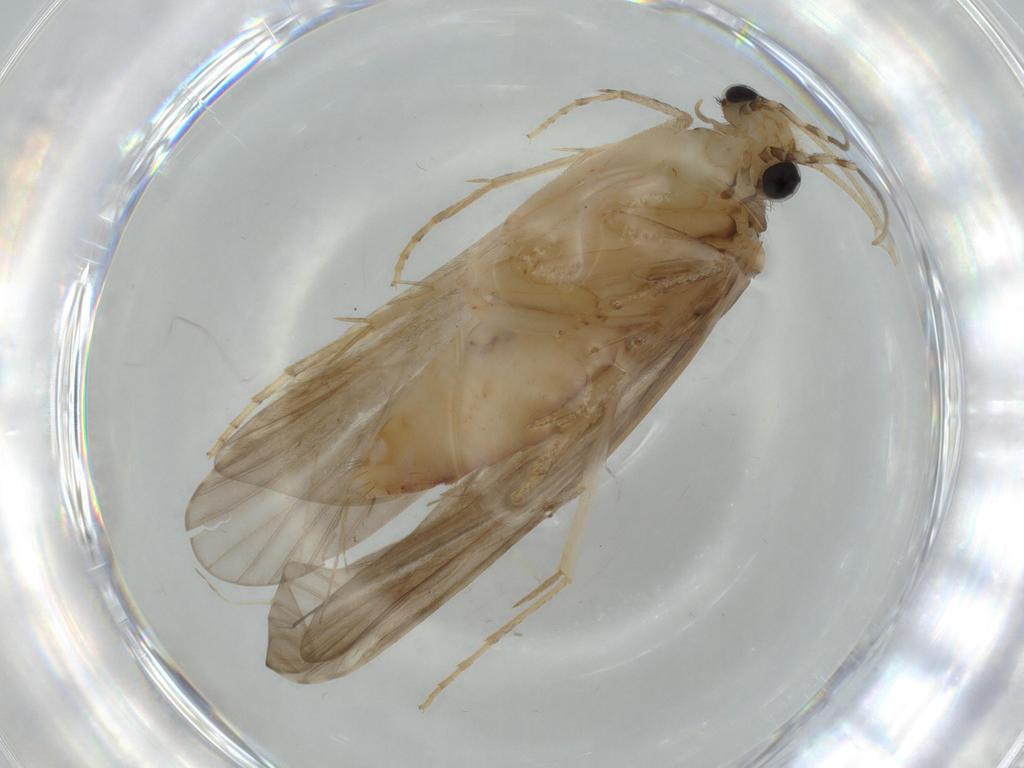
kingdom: Animalia
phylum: Arthropoda
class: Insecta
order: Trichoptera
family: Ecnomidae
